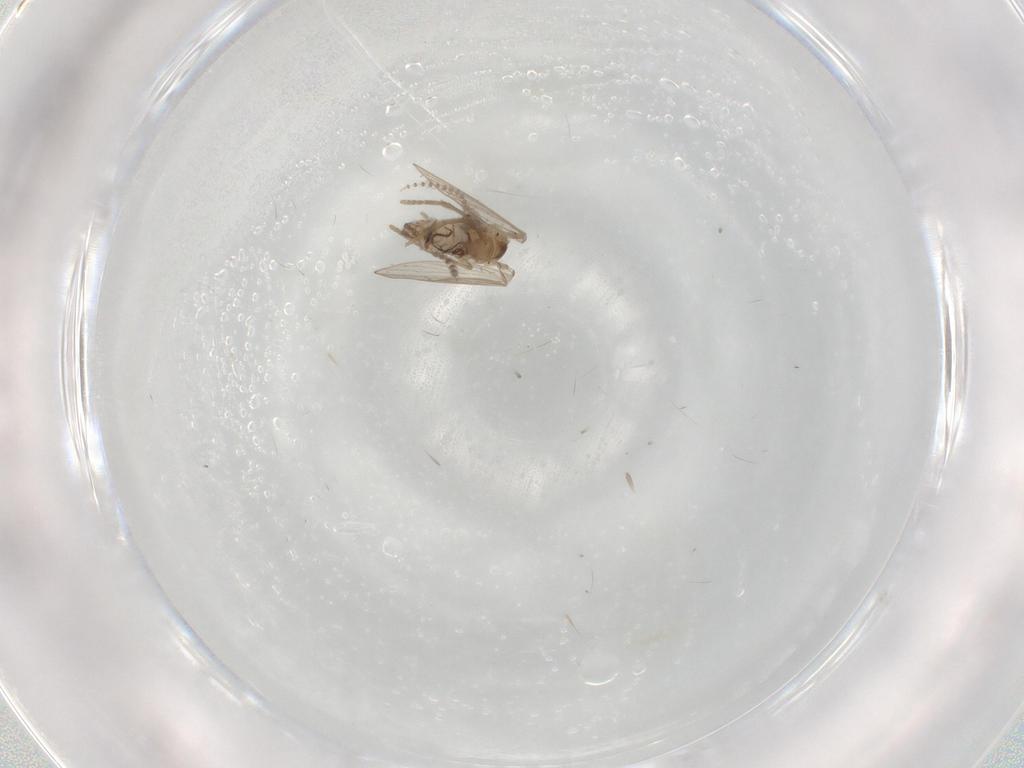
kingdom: Animalia
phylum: Arthropoda
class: Insecta
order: Diptera
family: Psychodidae
